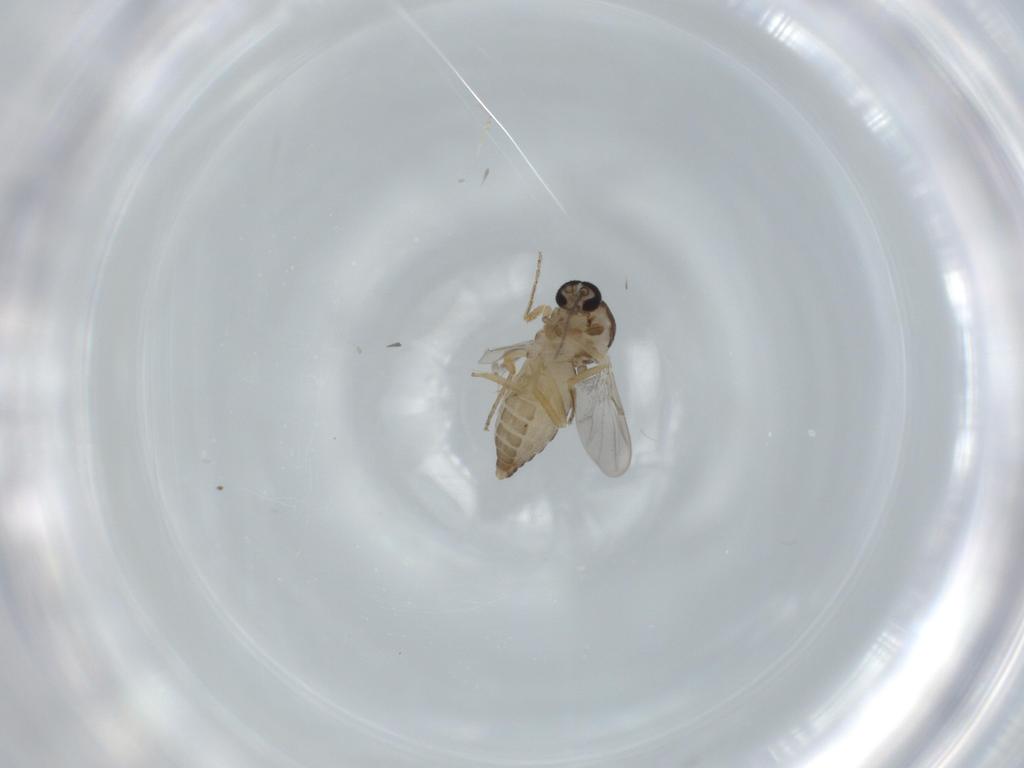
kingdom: Animalia
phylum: Arthropoda
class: Insecta
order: Diptera
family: Ceratopogonidae
